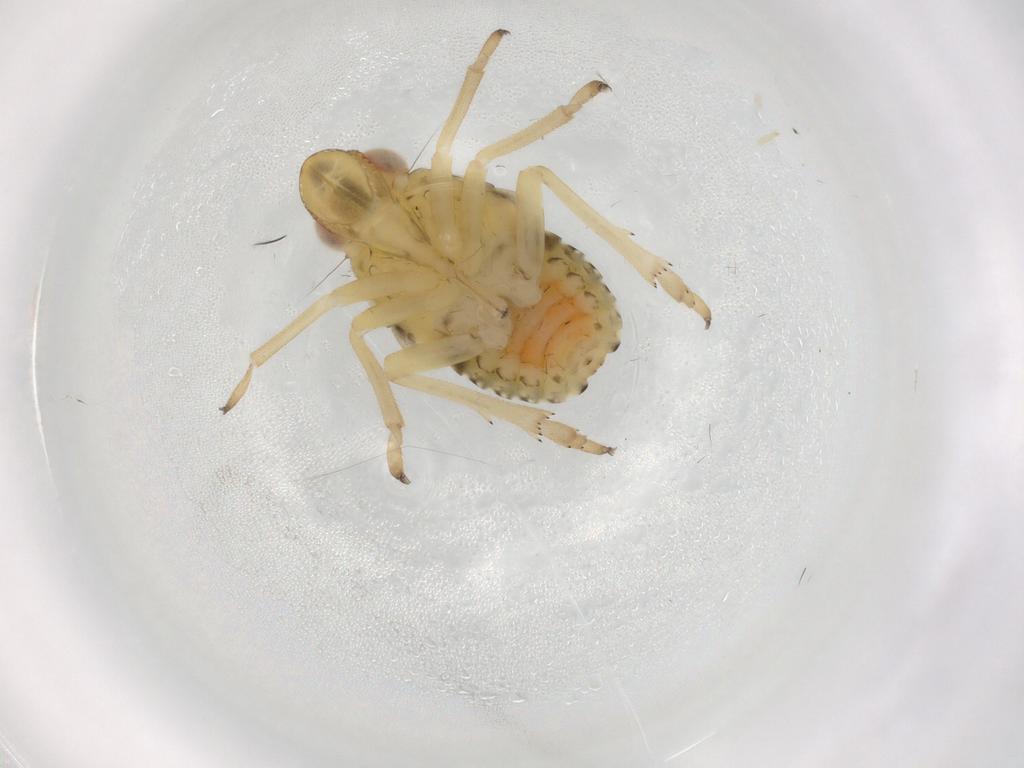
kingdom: Animalia
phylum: Arthropoda
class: Insecta
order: Hemiptera
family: Caliscelidae
